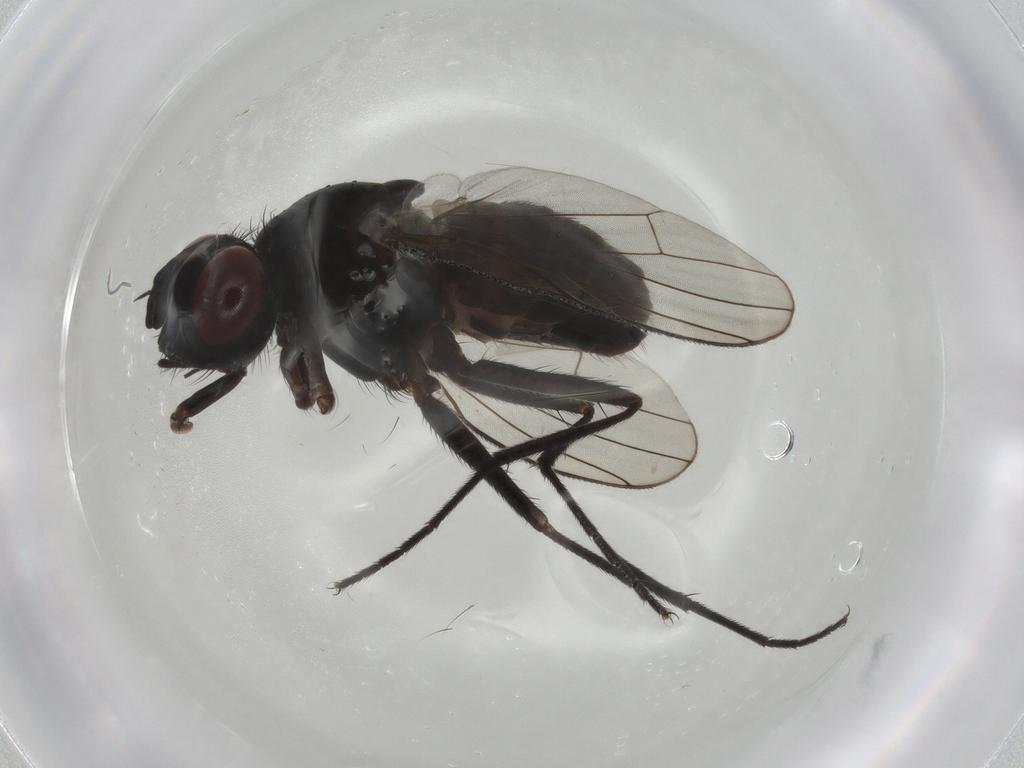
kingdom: Animalia
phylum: Arthropoda
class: Insecta
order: Diptera
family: Muscidae
